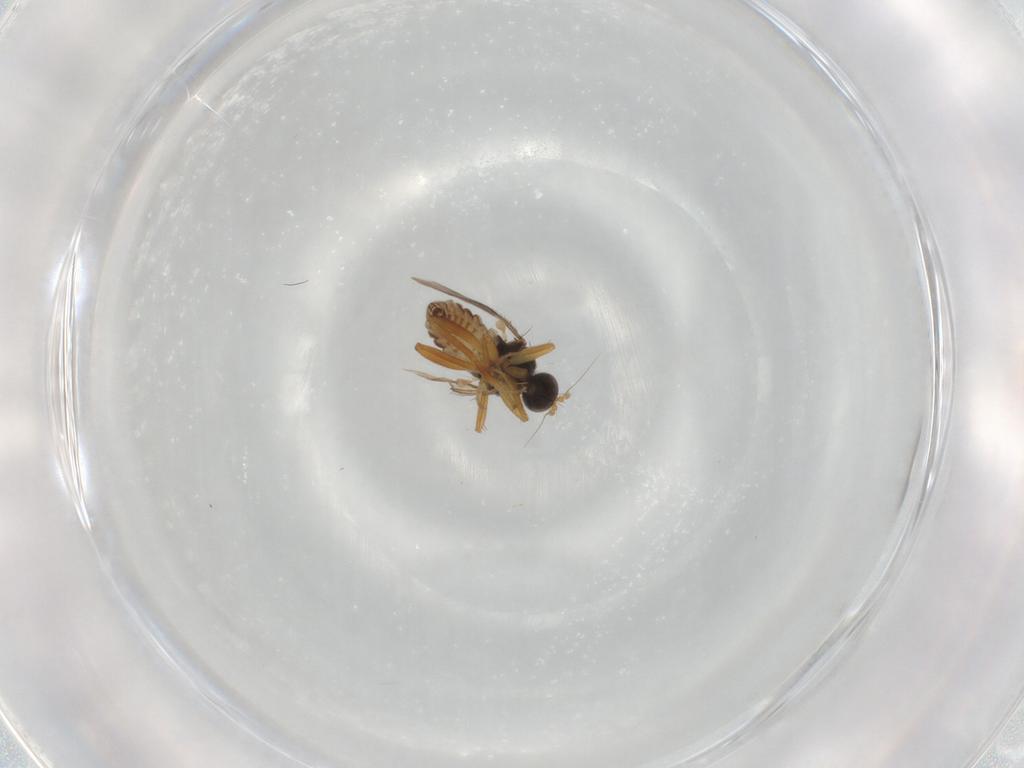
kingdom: Animalia
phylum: Arthropoda
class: Insecta
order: Diptera
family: Hybotidae
